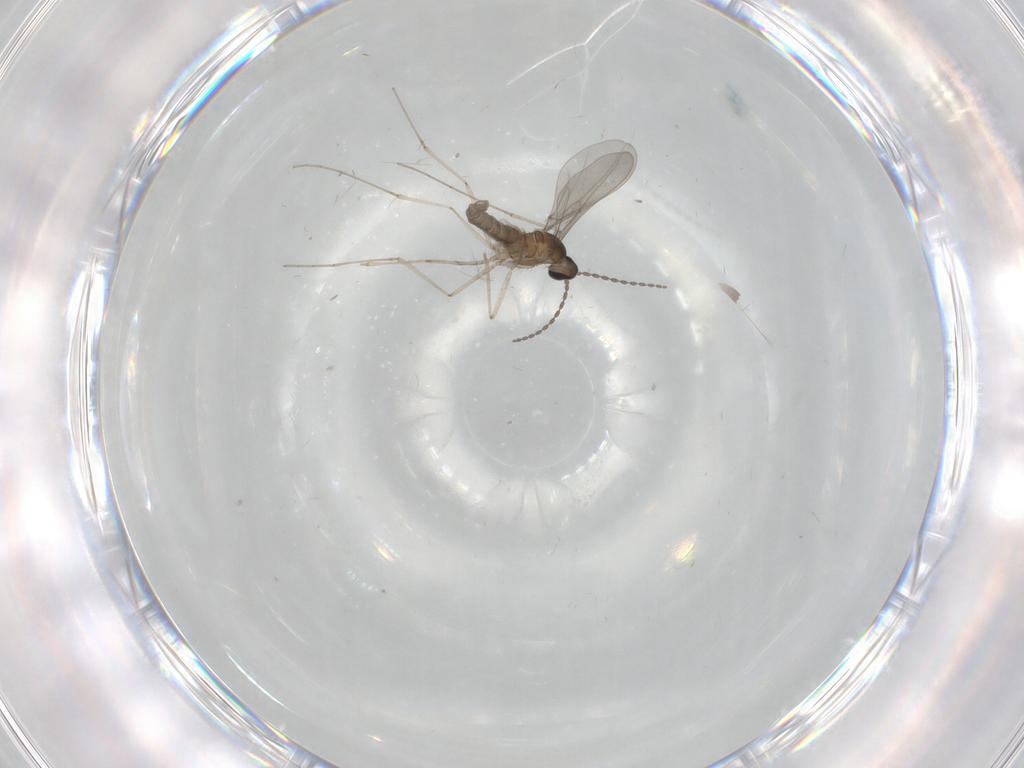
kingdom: Animalia
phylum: Arthropoda
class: Insecta
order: Diptera
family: Cecidomyiidae
